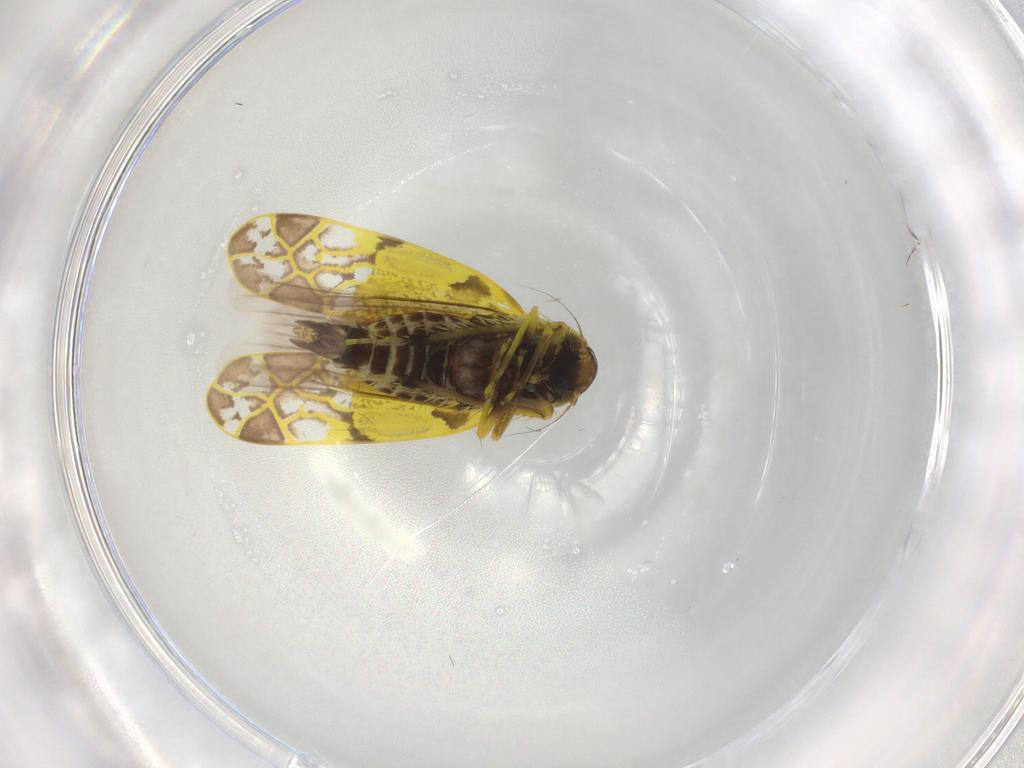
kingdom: Animalia
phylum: Arthropoda
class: Insecta
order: Hemiptera
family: Cicadellidae
